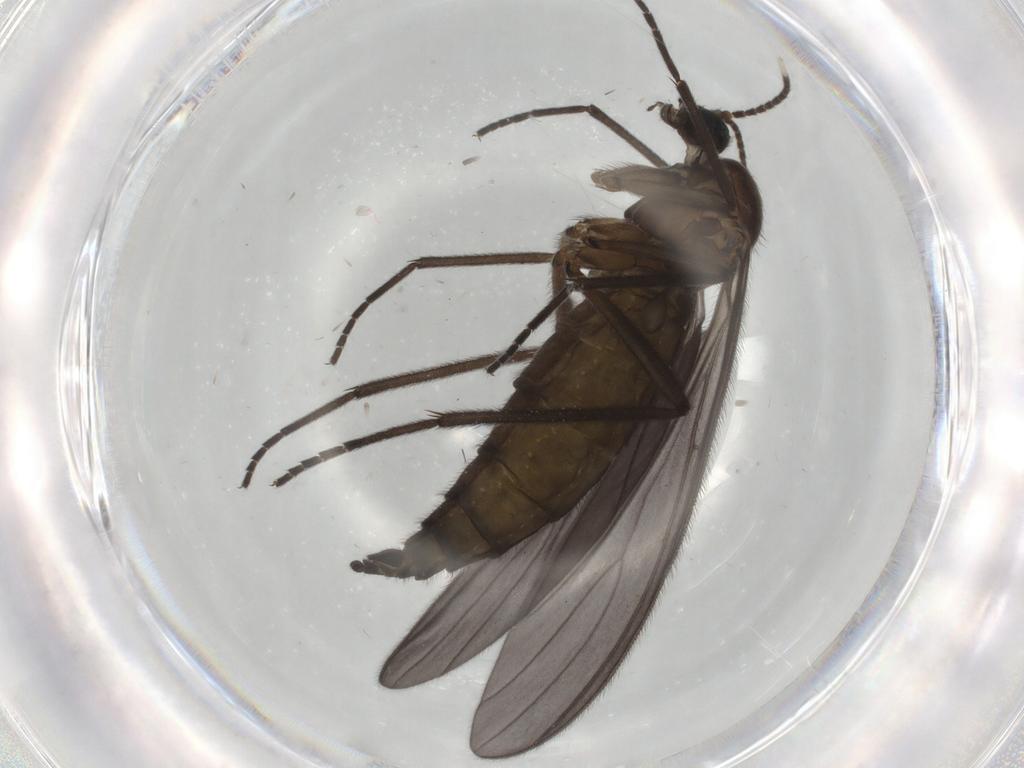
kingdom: Animalia
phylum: Arthropoda
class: Insecta
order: Diptera
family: Sciaridae
